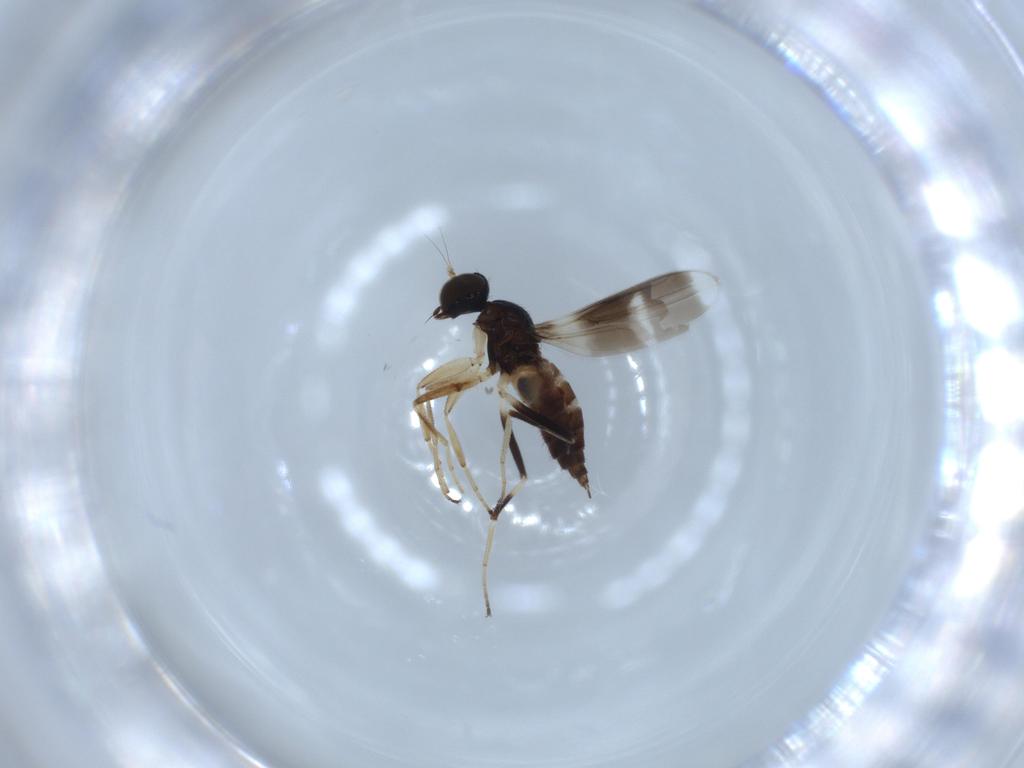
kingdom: Animalia
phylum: Arthropoda
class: Insecta
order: Diptera
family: Hybotidae
